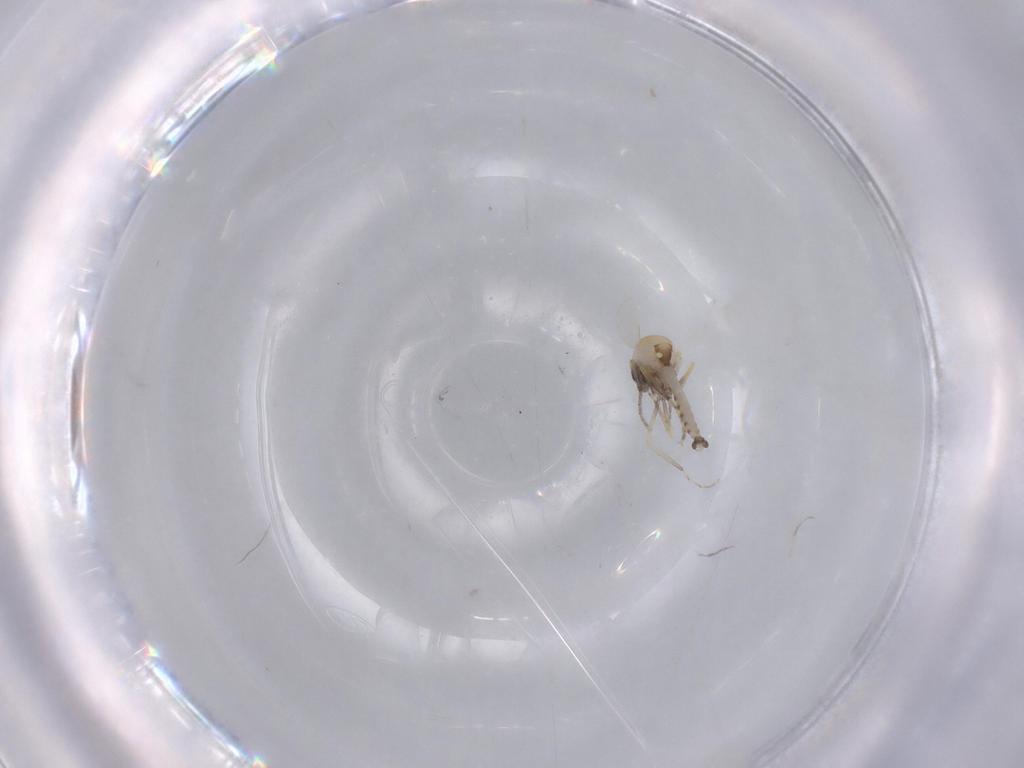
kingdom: Animalia
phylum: Arthropoda
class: Insecta
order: Diptera
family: Ceratopogonidae
